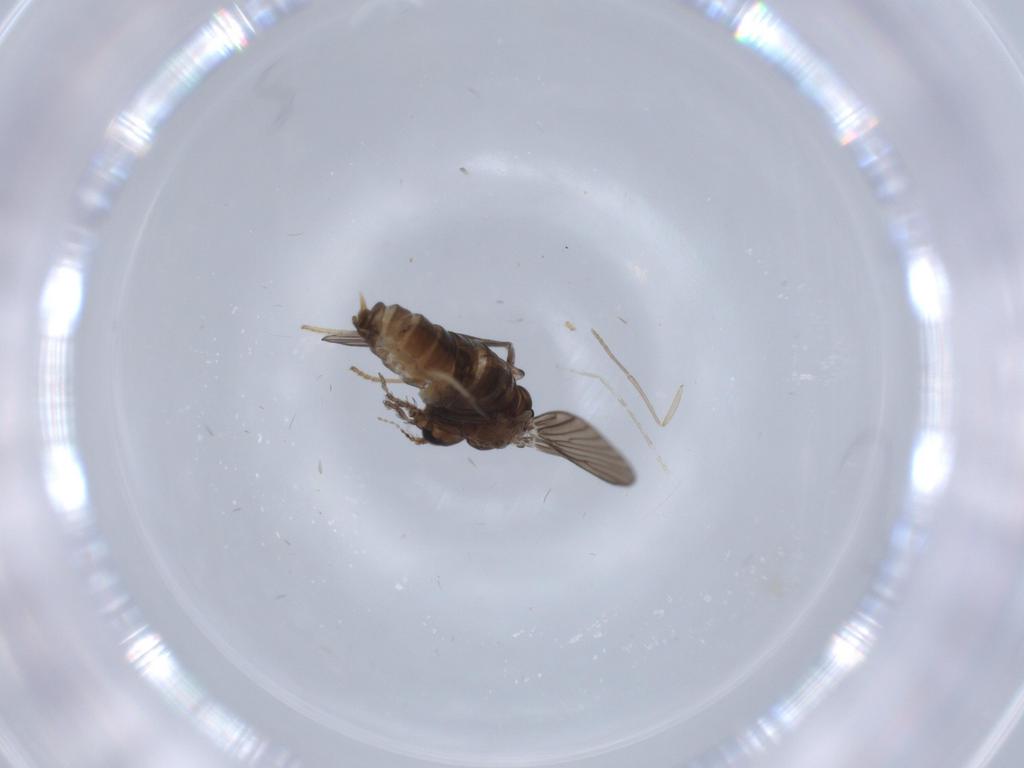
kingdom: Animalia
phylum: Arthropoda
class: Insecta
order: Diptera
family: Psychodidae
